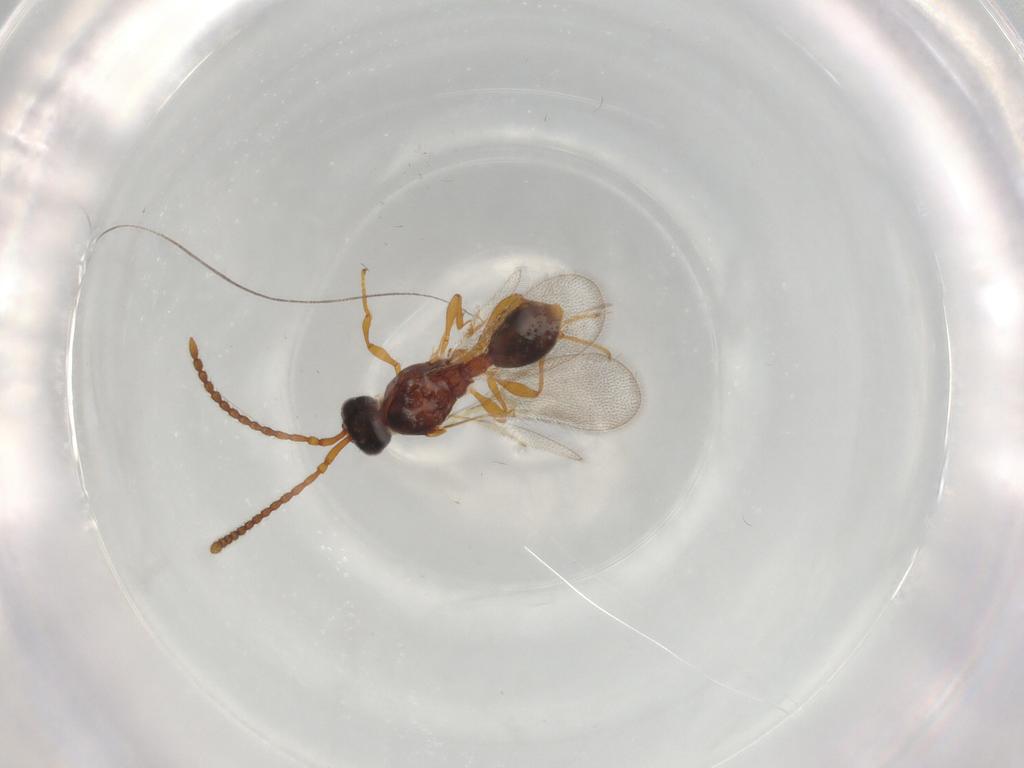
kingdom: Animalia
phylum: Arthropoda
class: Insecta
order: Hymenoptera
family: Diapriidae
